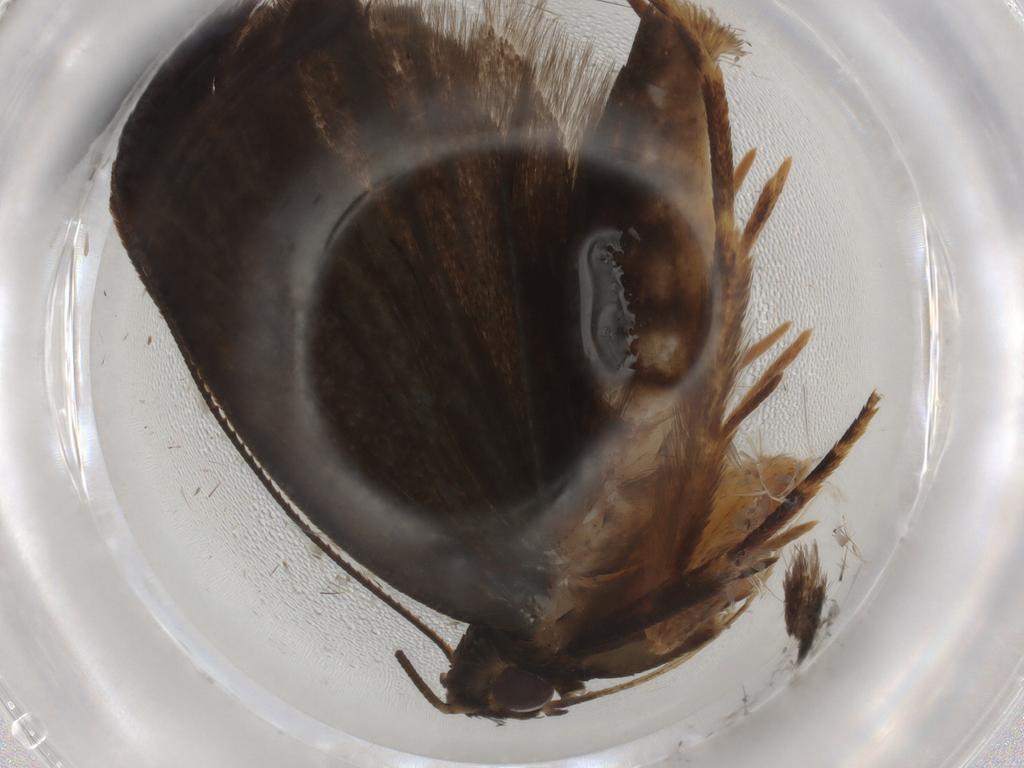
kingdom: Animalia
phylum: Arthropoda
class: Insecta
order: Lepidoptera
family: Gelechiidae
